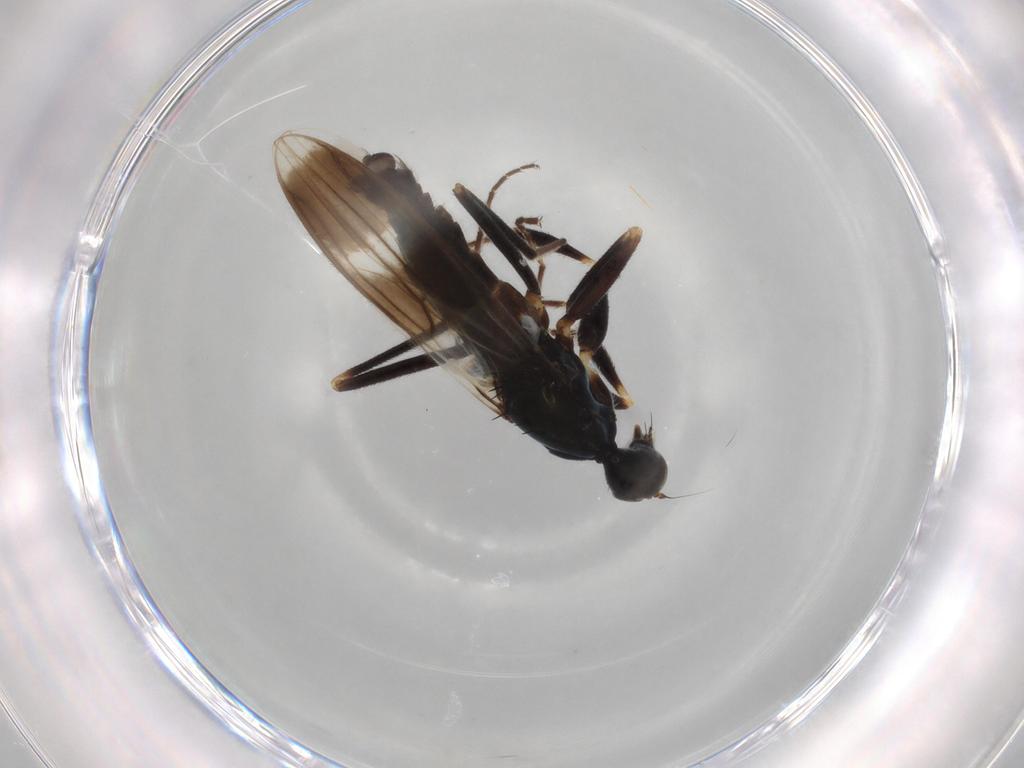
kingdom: Animalia
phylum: Arthropoda
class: Insecta
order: Diptera
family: Hybotidae
